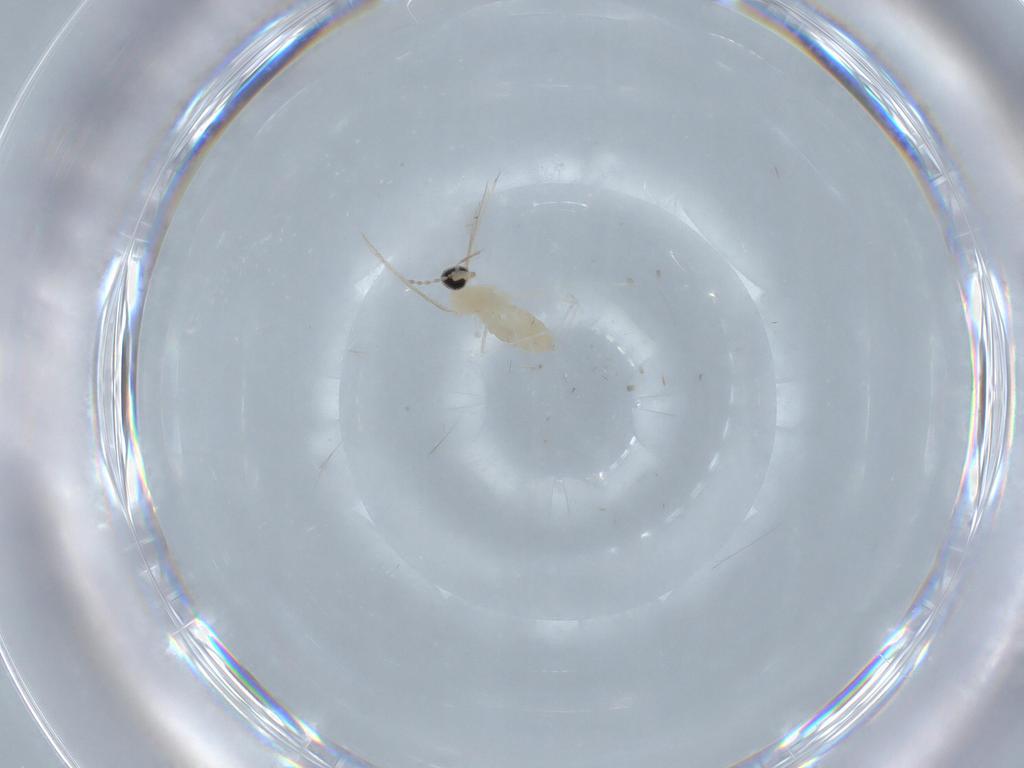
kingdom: Animalia
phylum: Arthropoda
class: Insecta
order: Diptera
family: Cecidomyiidae
